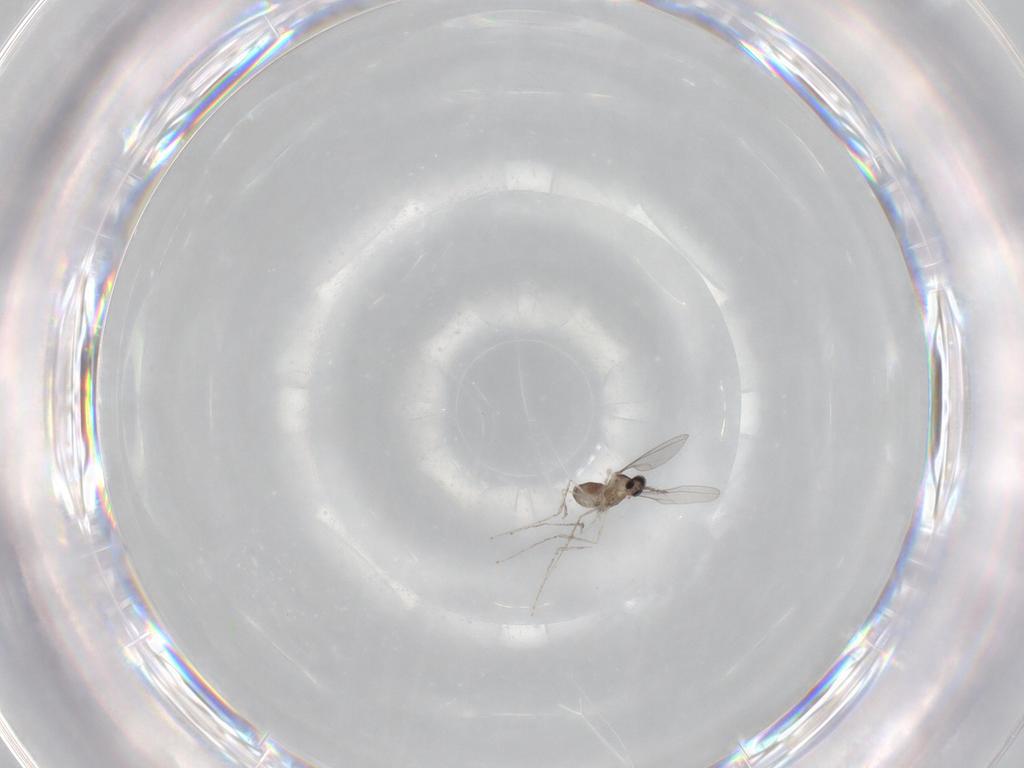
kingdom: Animalia
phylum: Arthropoda
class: Insecta
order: Diptera
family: Cecidomyiidae
